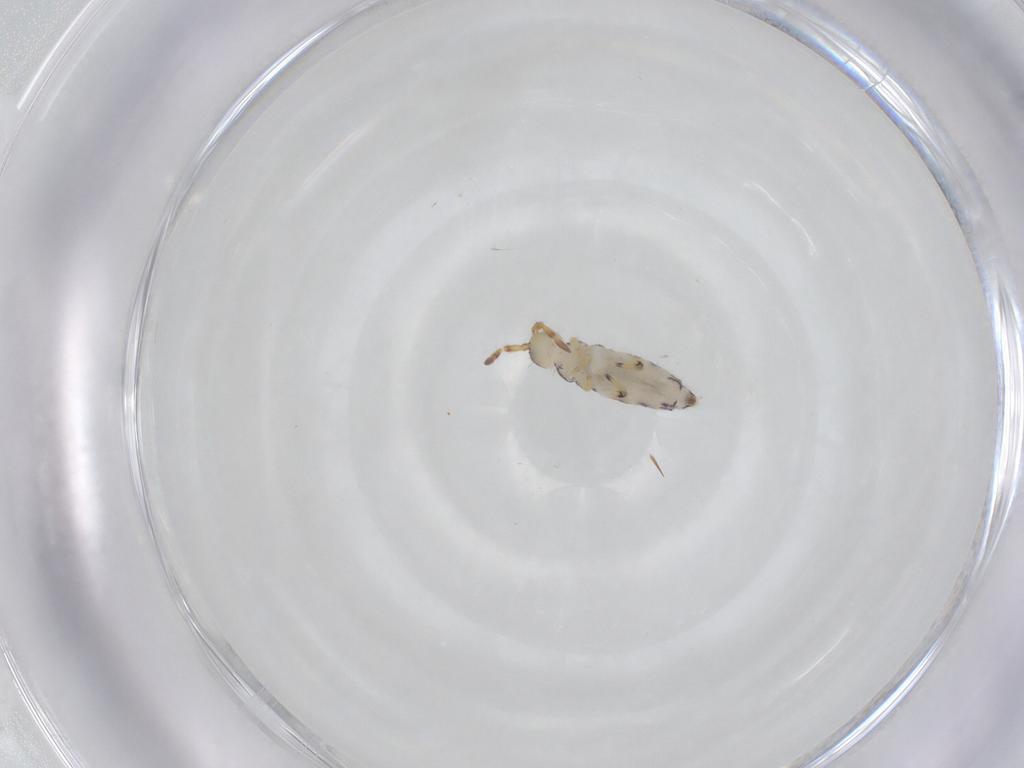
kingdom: Animalia
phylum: Arthropoda
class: Collembola
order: Entomobryomorpha
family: Isotomidae
